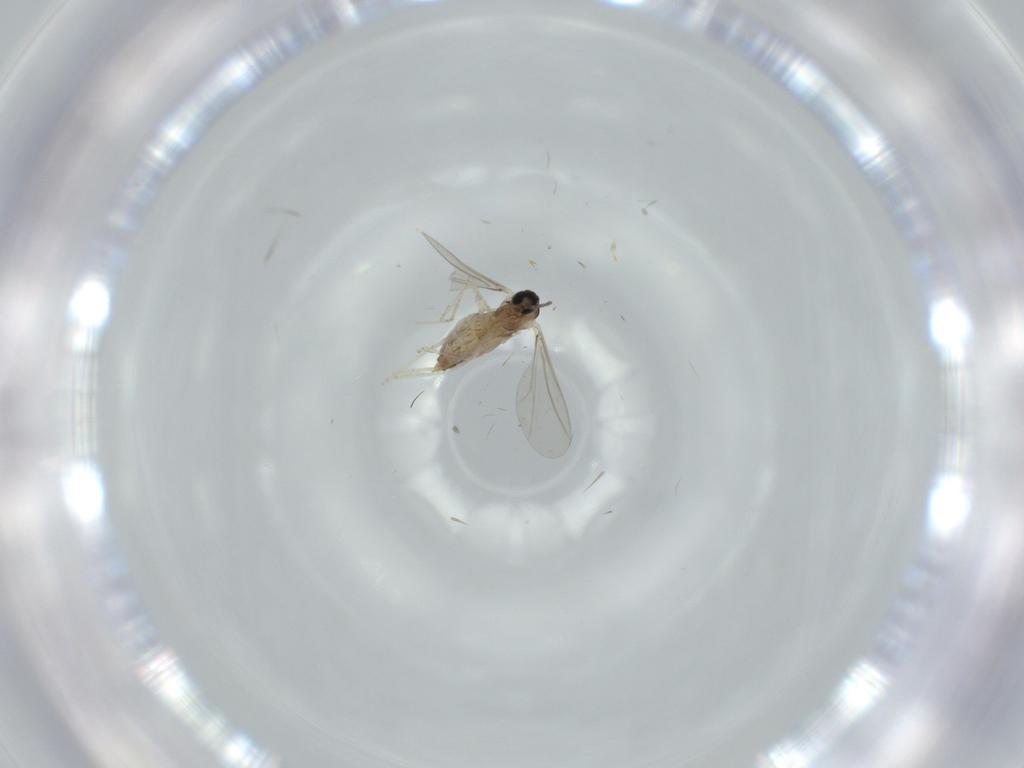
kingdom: Animalia
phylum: Arthropoda
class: Insecta
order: Diptera
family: Cecidomyiidae
